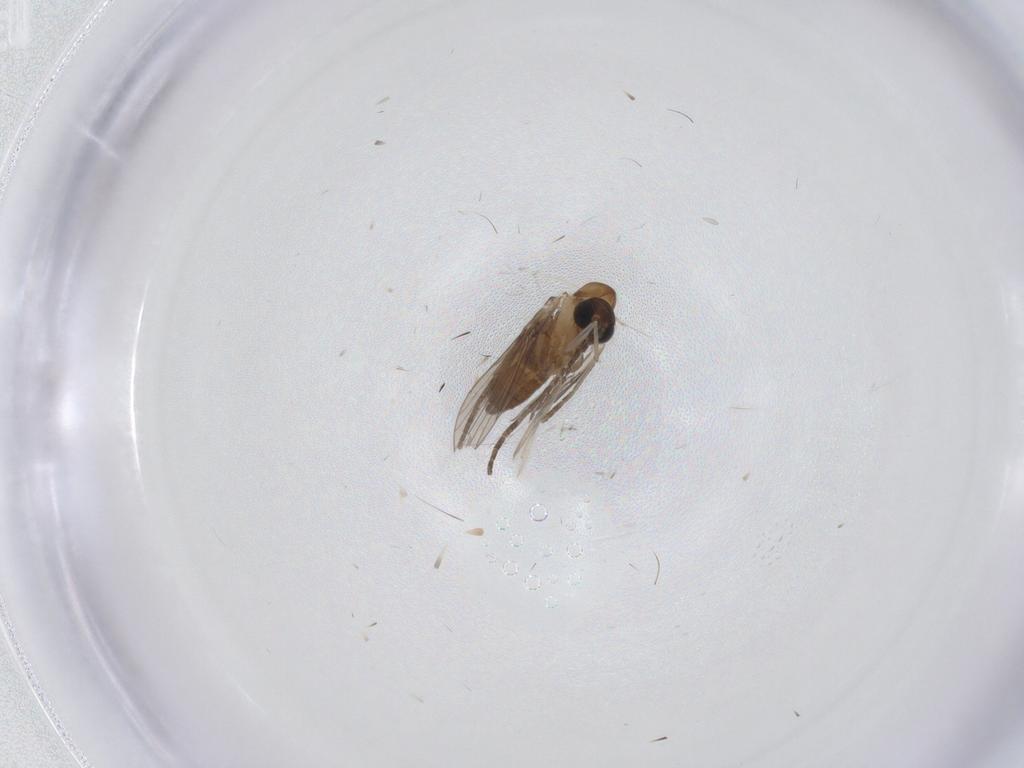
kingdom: Animalia
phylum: Arthropoda
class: Insecta
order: Diptera
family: Cecidomyiidae
